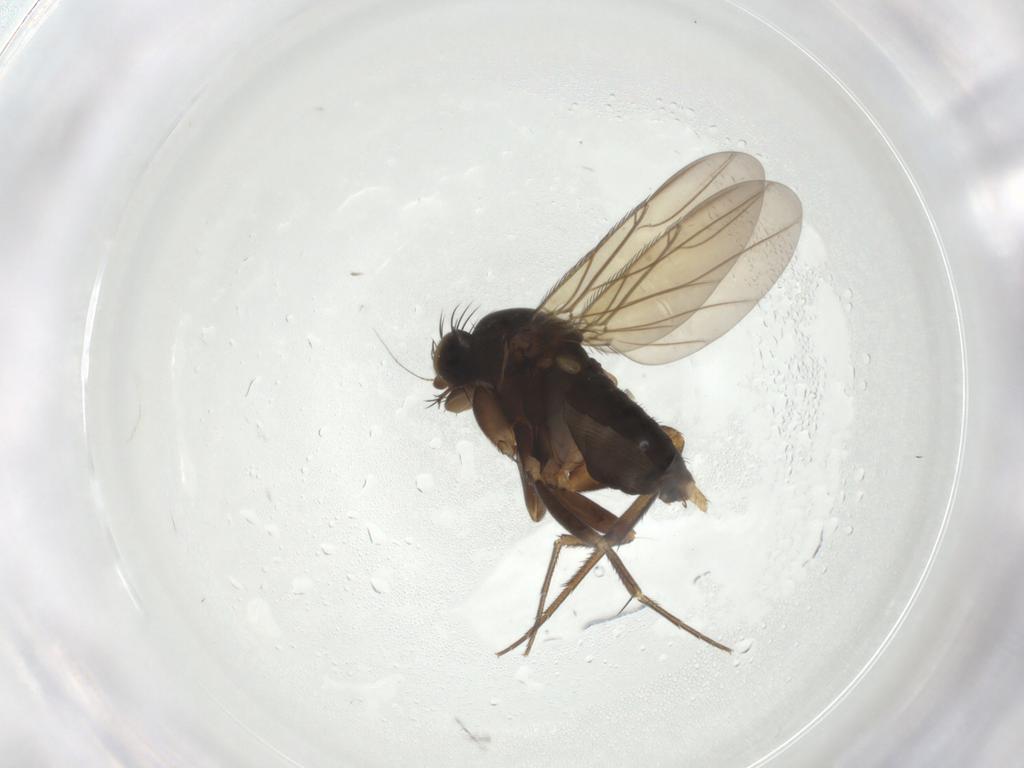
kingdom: Animalia
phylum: Arthropoda
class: Insecta
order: Diptera
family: Phoridae
